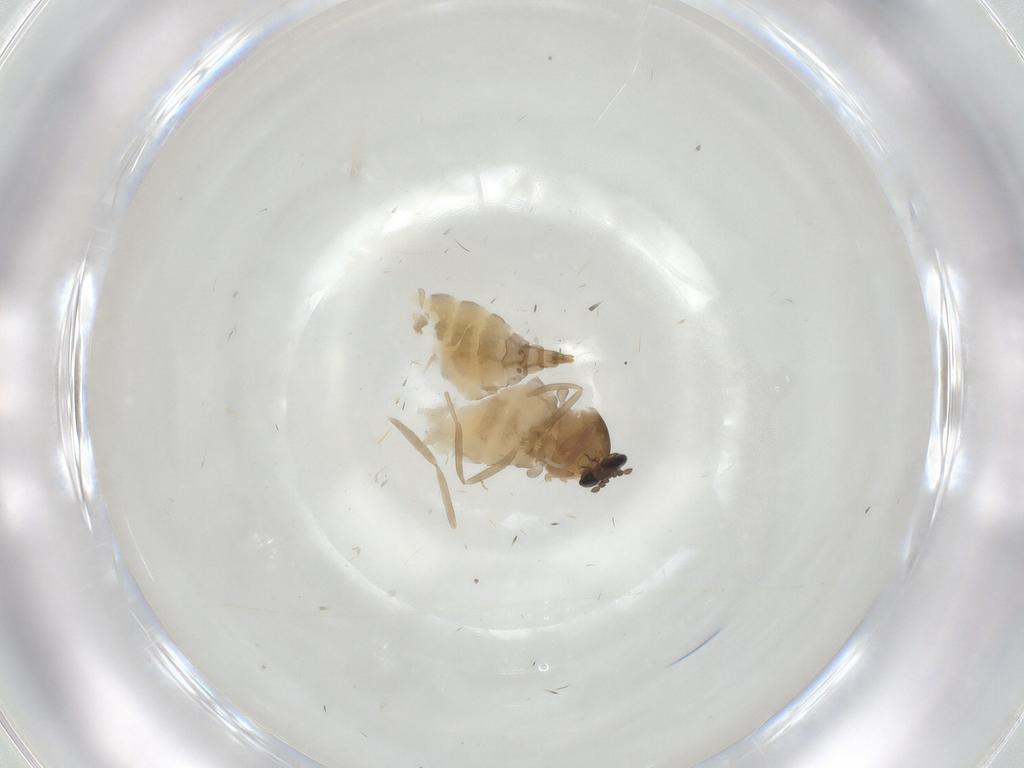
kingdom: Animalia
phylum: Arthropoda
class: Insecta
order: Diptera
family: Cecidomyiidae
